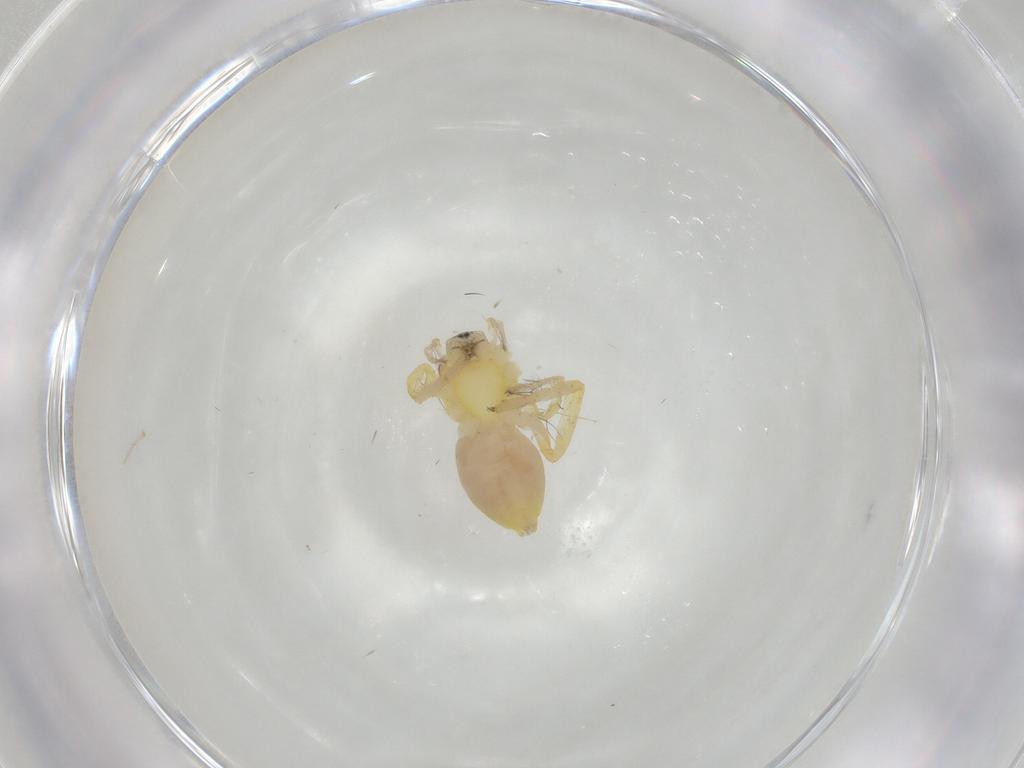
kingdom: Animalia
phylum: Arthropoda
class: Arachnida
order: Araneae
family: Anyphaenidae
